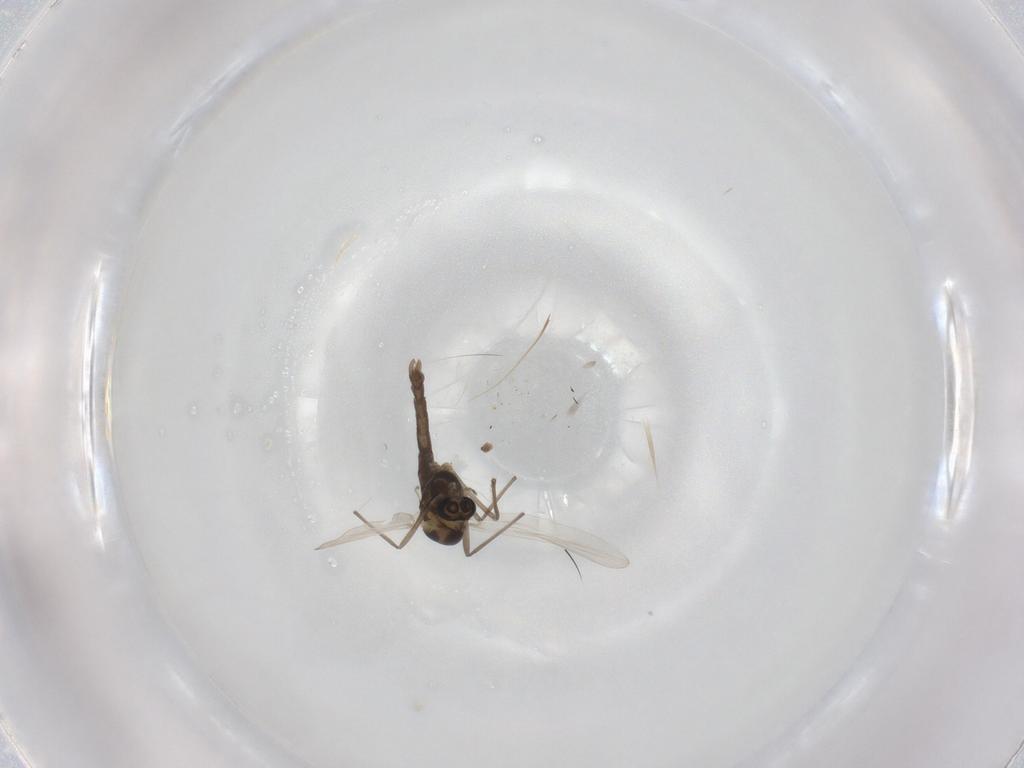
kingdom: Animalia
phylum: Arthropoda
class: Insecta
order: Diptera
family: Chironomidae
